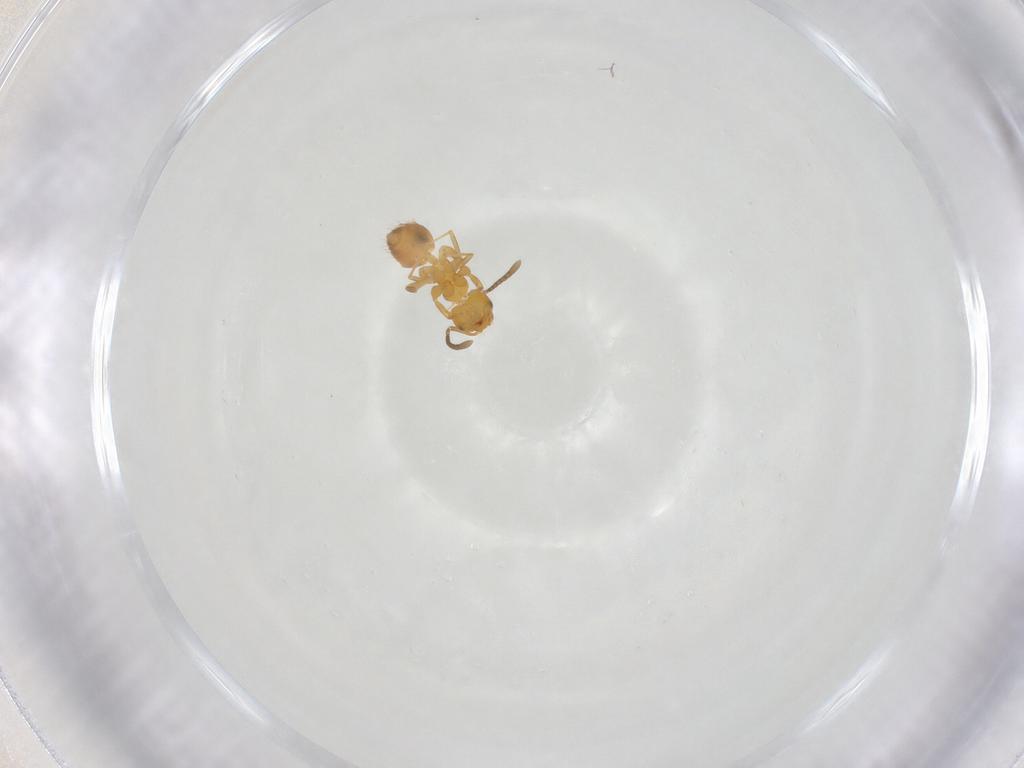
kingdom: Animalia
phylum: Arthropoda
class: Insecta
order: Hymenoptera
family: Formicidae
